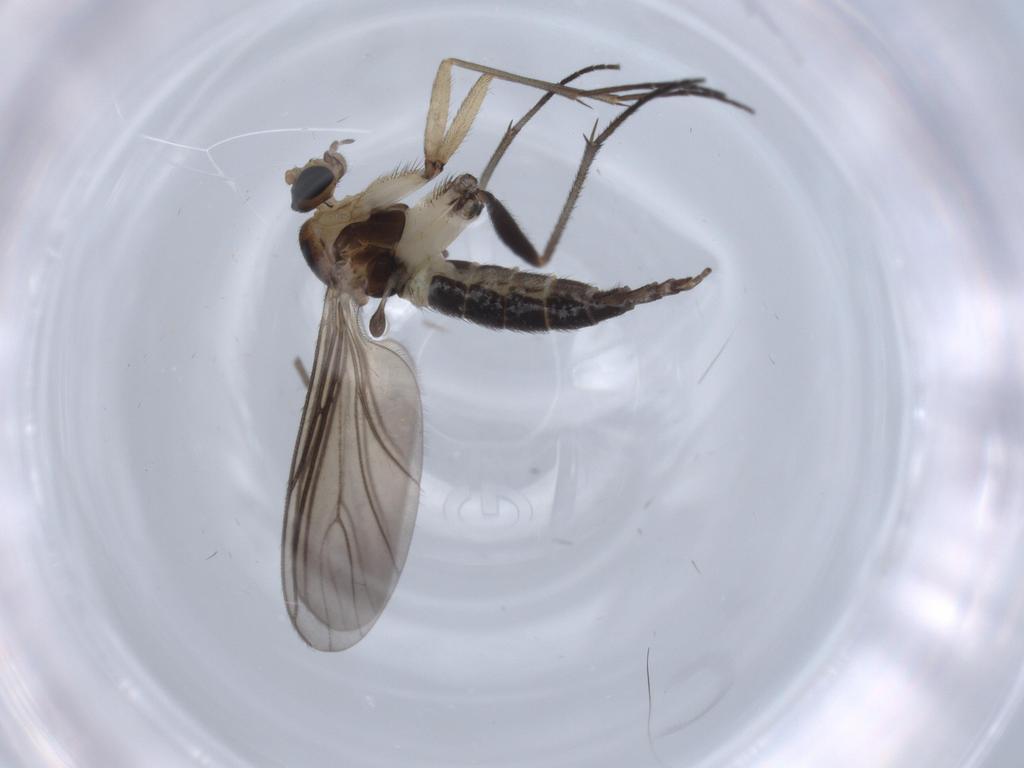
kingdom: Animalia
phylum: Arthropoda
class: Insecta
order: Diptera
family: Sciaridae
